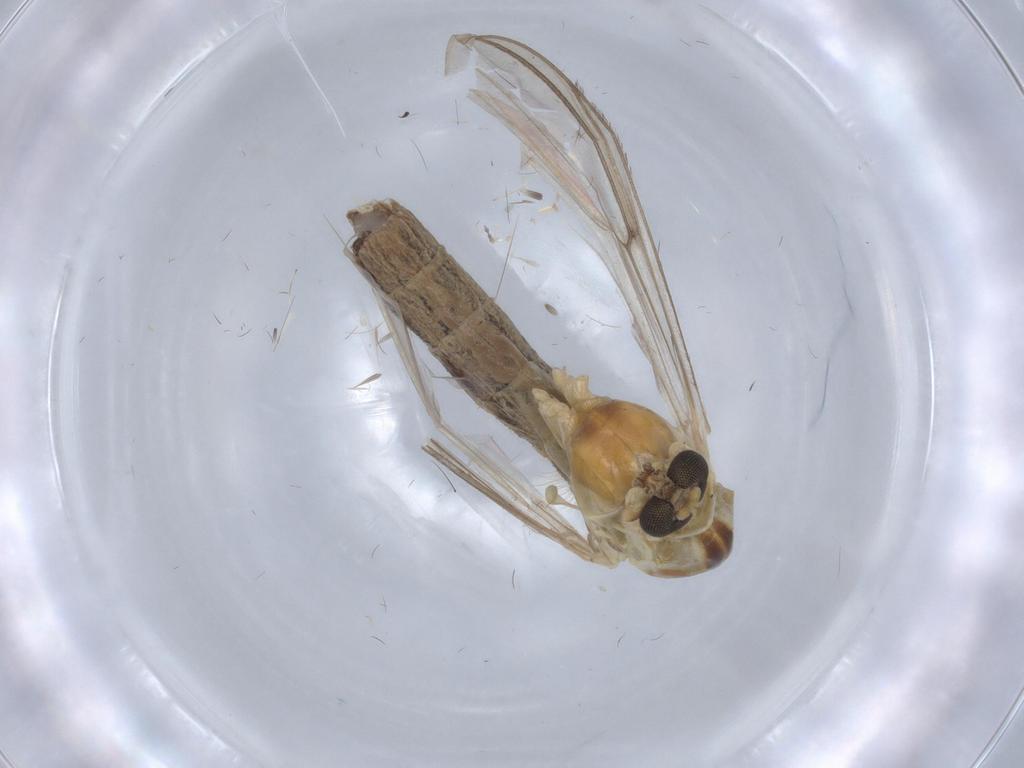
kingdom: Animalia
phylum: Arthropoda
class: Insecta
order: Diptera
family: Chironomidae
